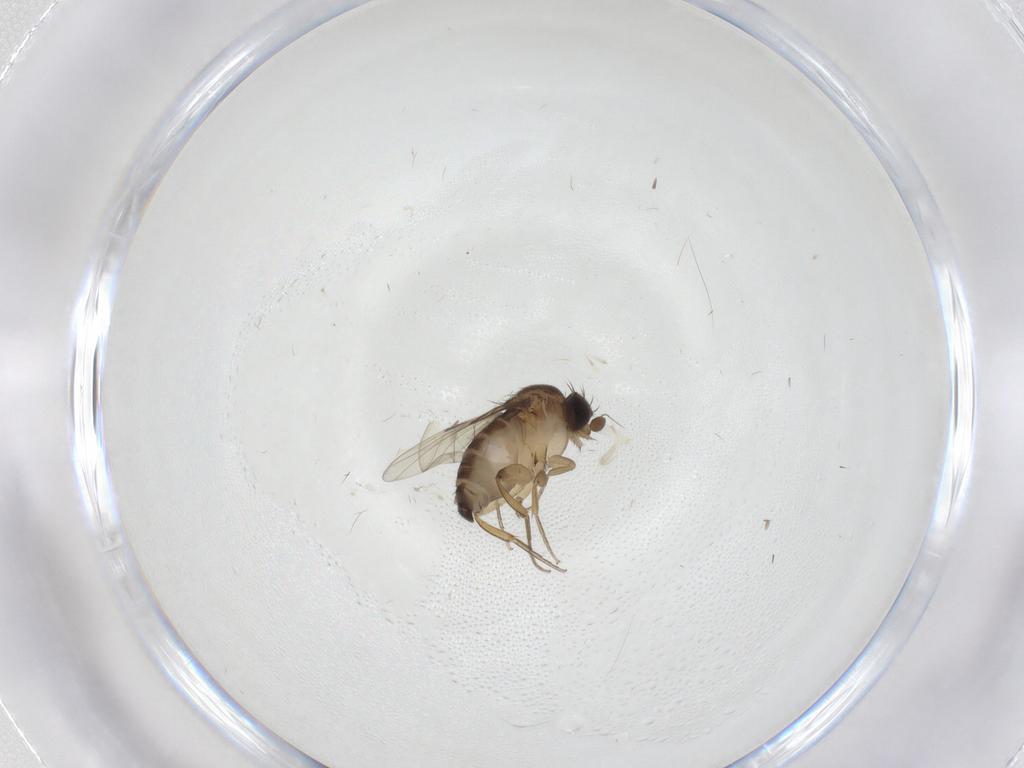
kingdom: Animalia
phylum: Arthropoda
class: Insecta
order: Diptera
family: Phoridae
